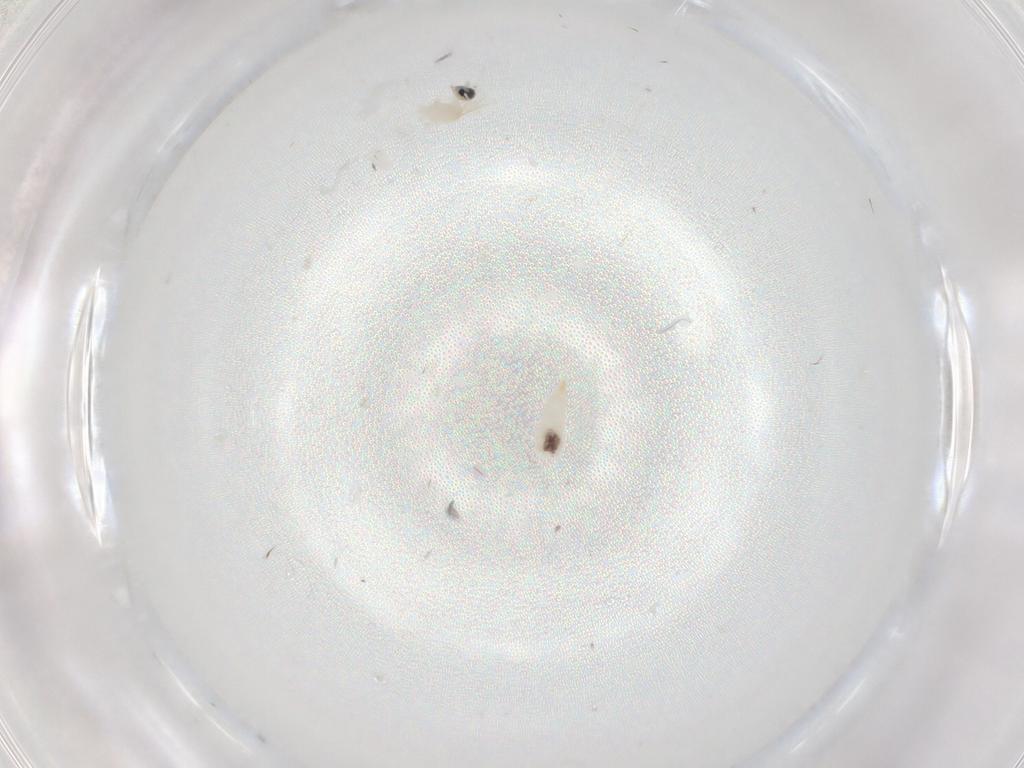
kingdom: Animalia
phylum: Arthropoda
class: Insecta
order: Diptera
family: Cecidomyiidae
